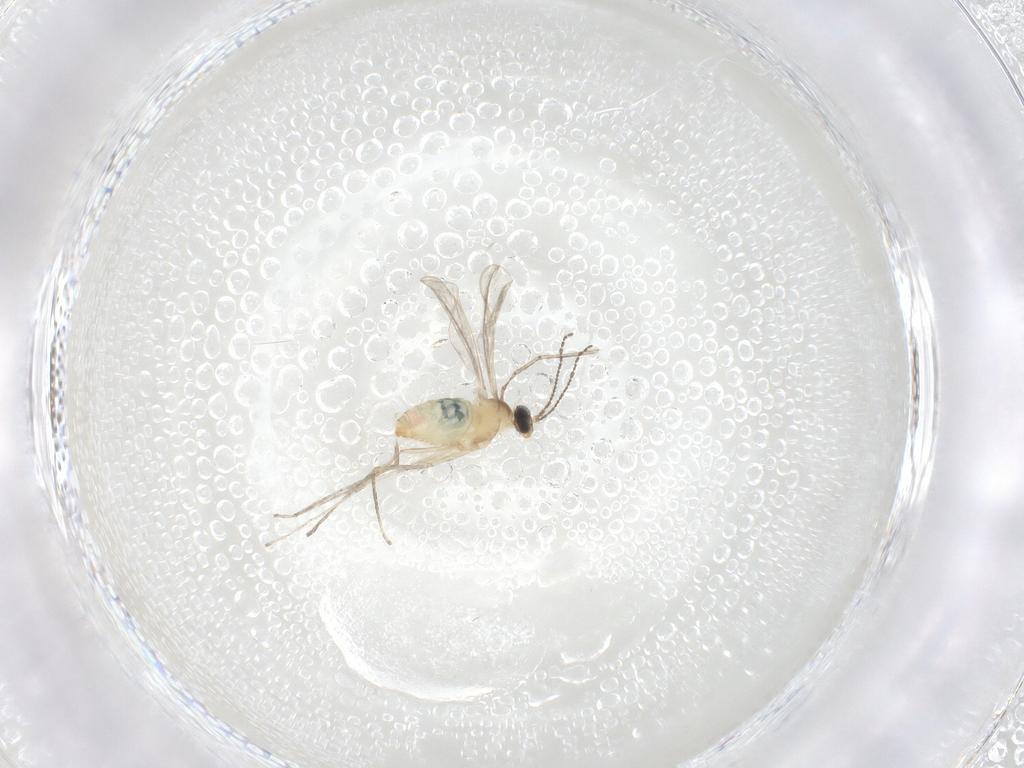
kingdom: Animalia
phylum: Arthropoda
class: Insecta
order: Diptera
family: Cecidomyiidae
